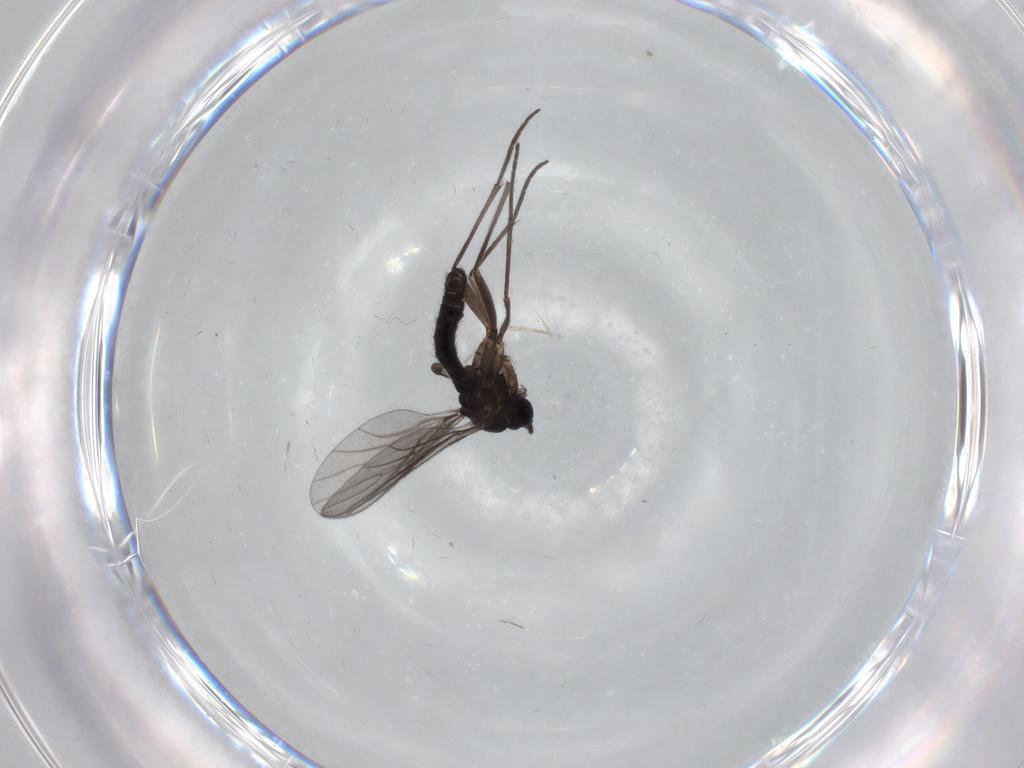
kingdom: Animalia
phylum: Arthropoda
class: Insecta
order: Diptera
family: Sciaridae
